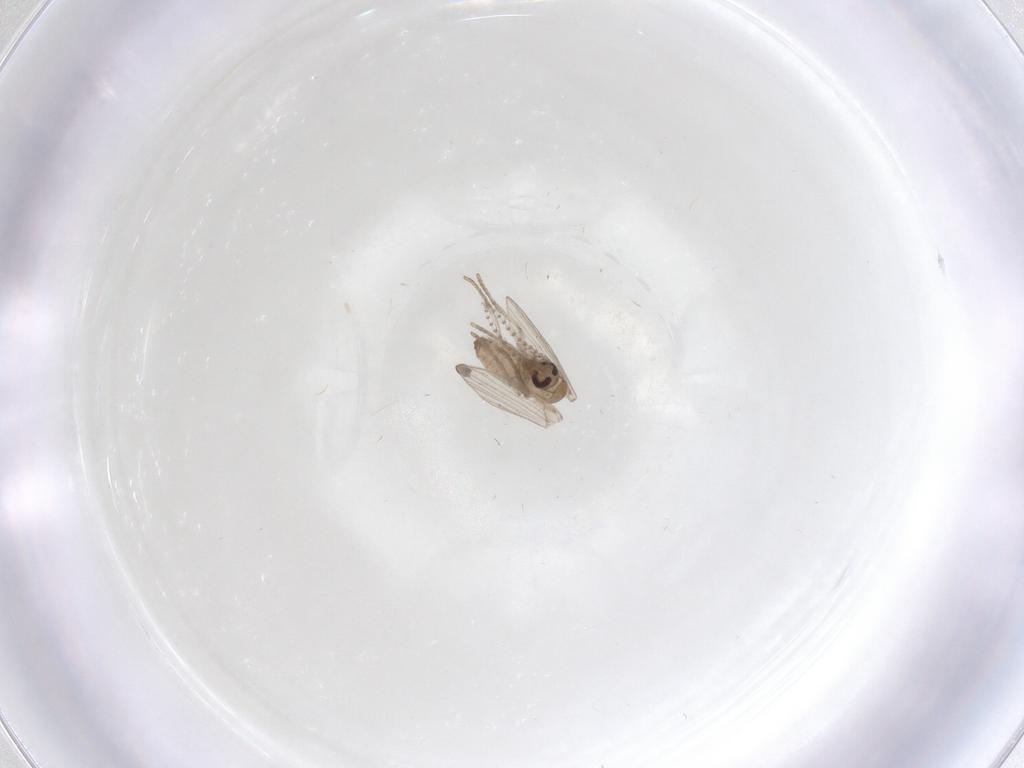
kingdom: Animalia
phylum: Arthropoda
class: Insecta
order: Diptera
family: Psychodidae
